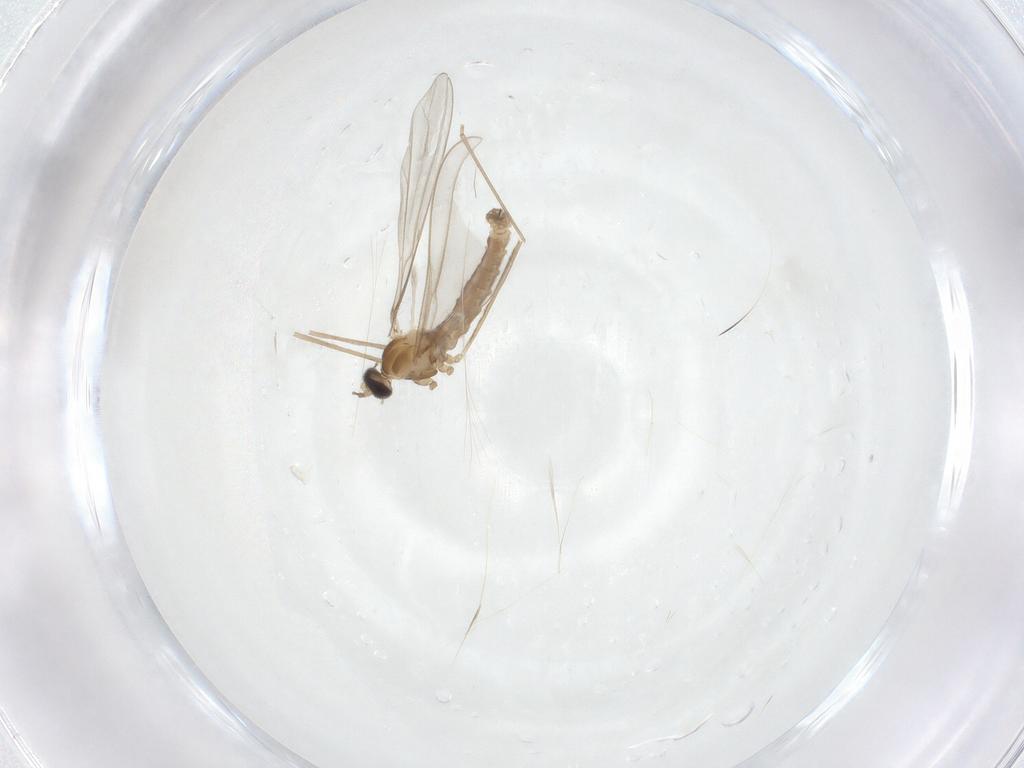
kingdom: Animalia
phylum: Arthropoda
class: Insecta
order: Diptera
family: Cecidomyiidae
